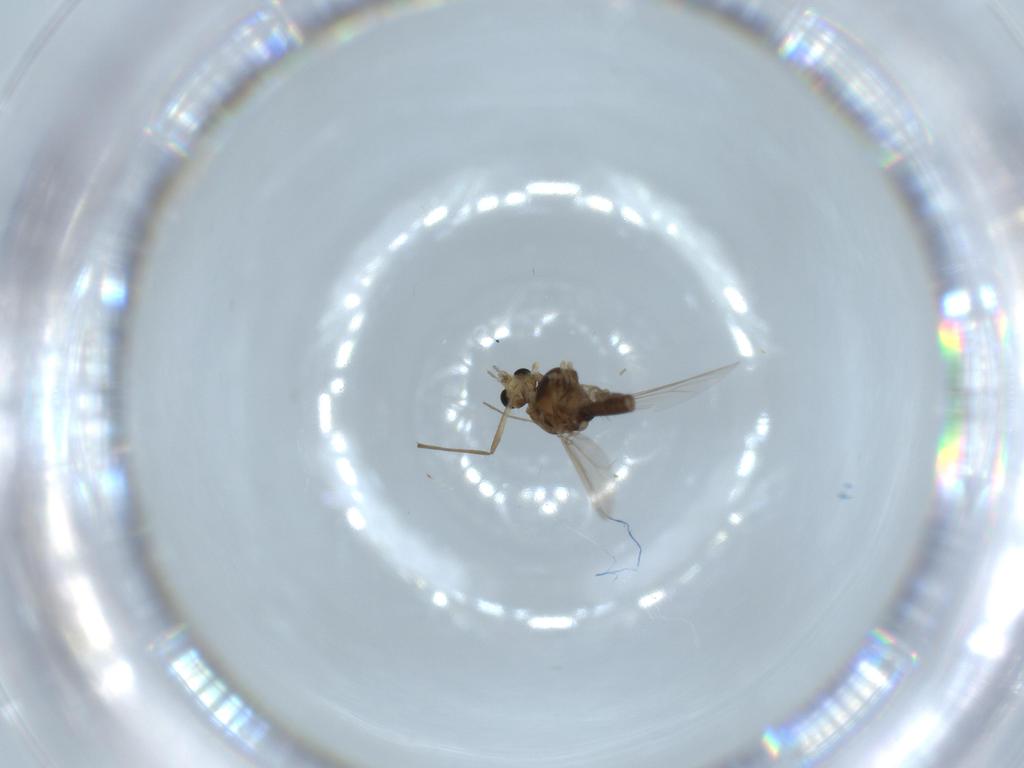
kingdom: Animalia
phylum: Arthropoda
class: Insecta
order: Diptera
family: Chironomidae
